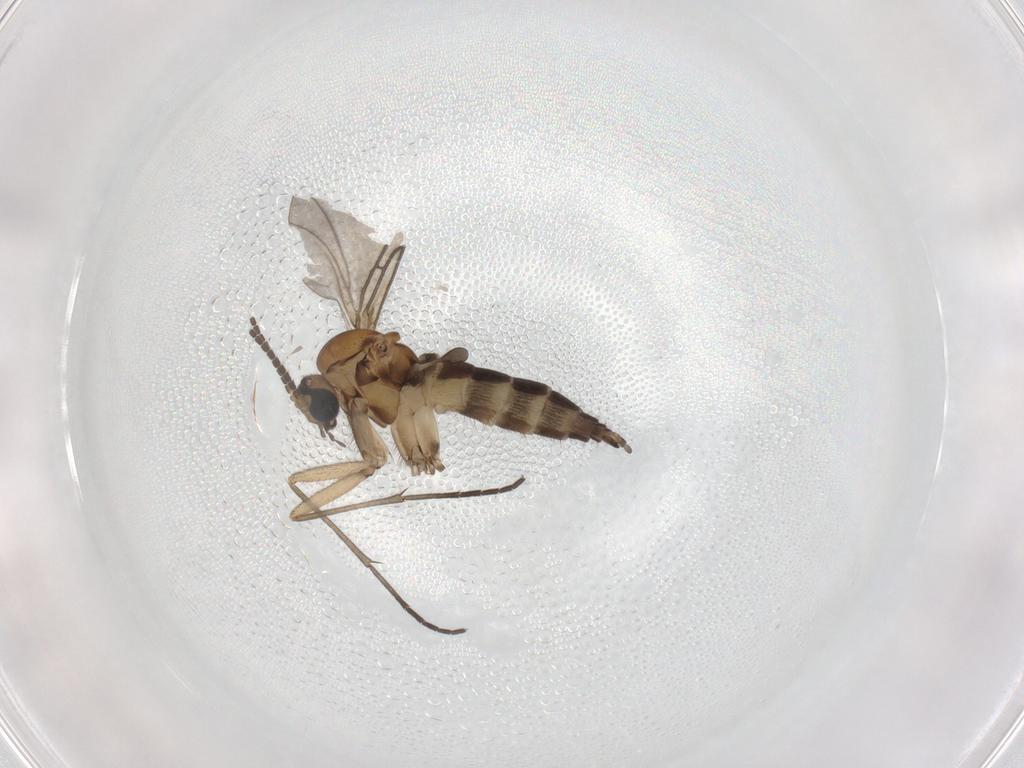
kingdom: Animalia
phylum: Arthropoda
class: Insecta
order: Diptera
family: Sciaridae
